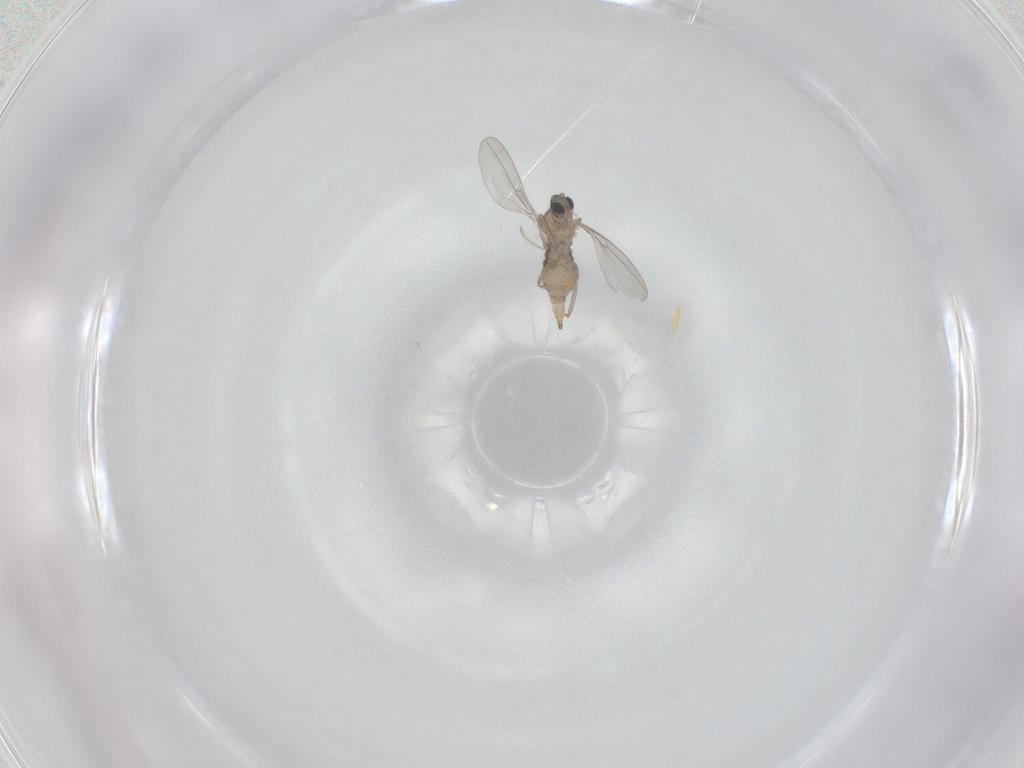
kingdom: Animalia
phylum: Arthropoda
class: Insecta
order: Diptera
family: Cecidomyiidae
